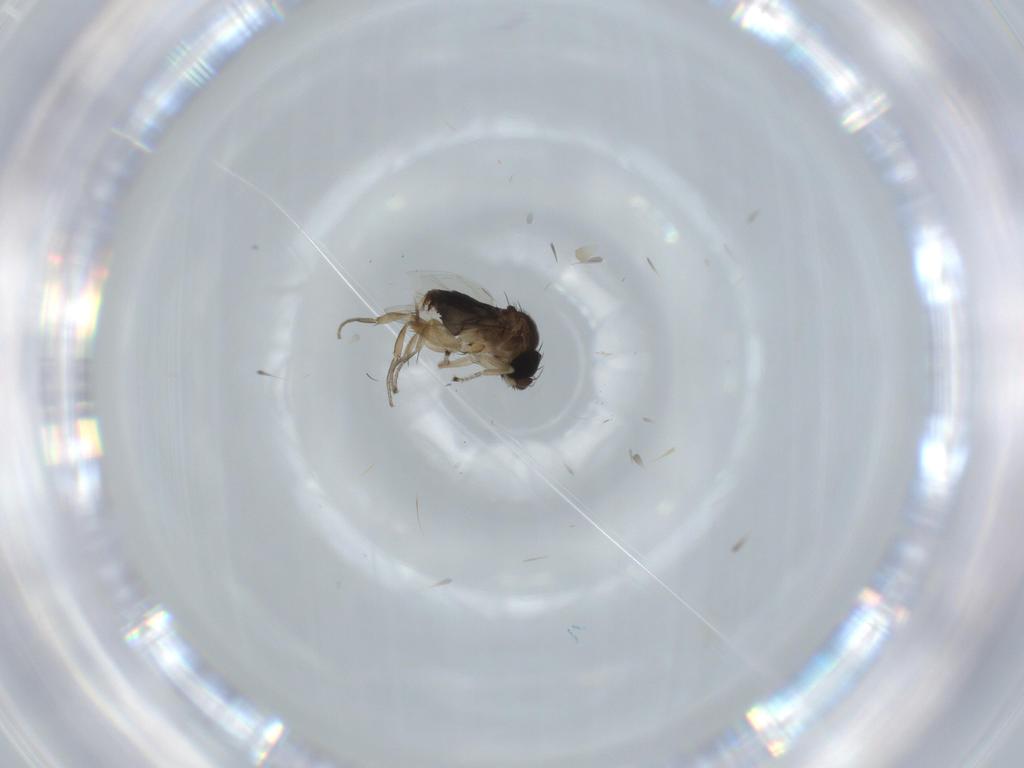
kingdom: Animalia
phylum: Arthropoda
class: Insecta
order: Diptera
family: Phoridae
